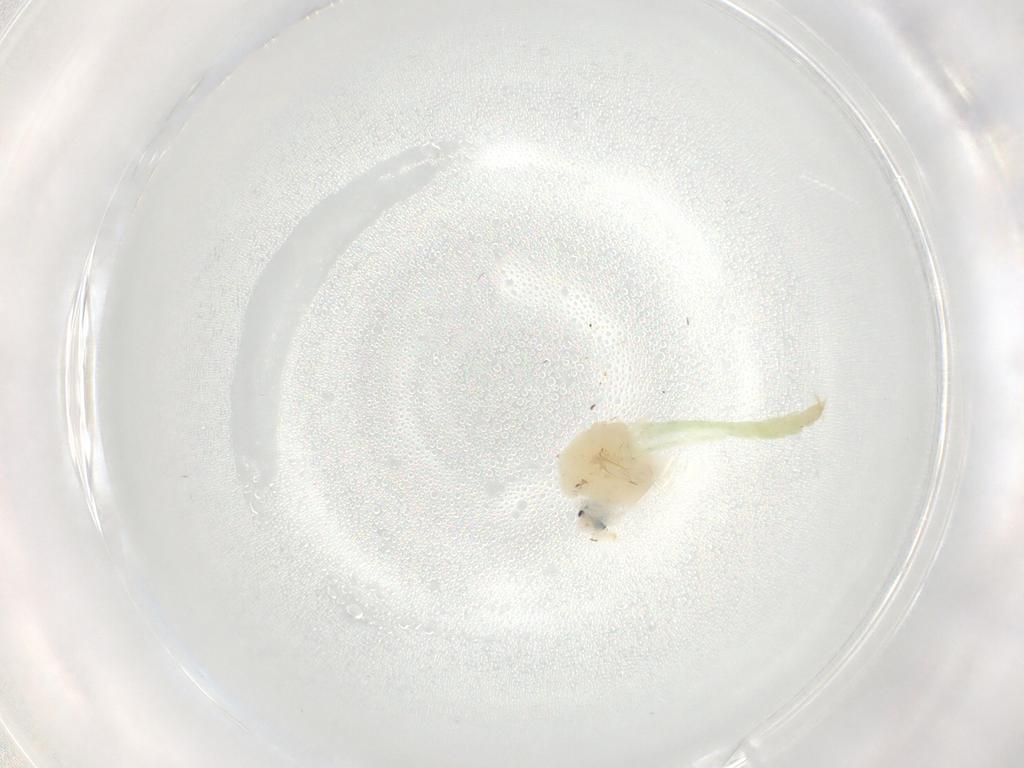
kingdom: Animalia
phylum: Arthropoda
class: Insecta
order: Diptera
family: Chironomidae
